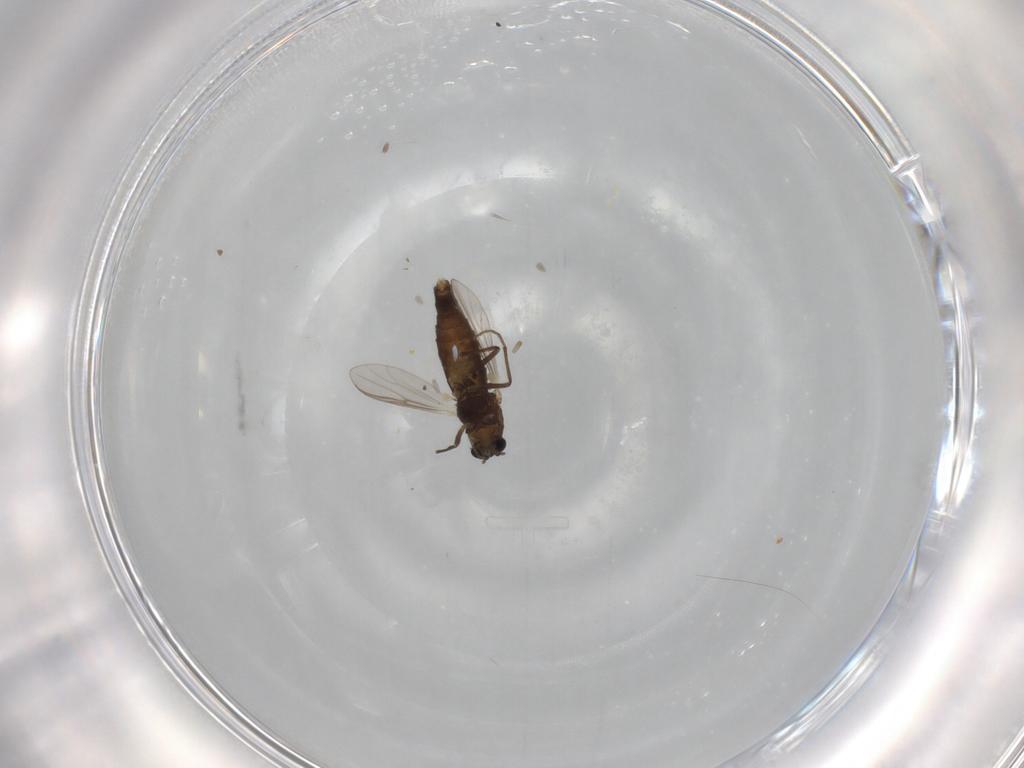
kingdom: Animalia
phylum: Arthropoda
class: Insecta
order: Diptera
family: Chironomidae
